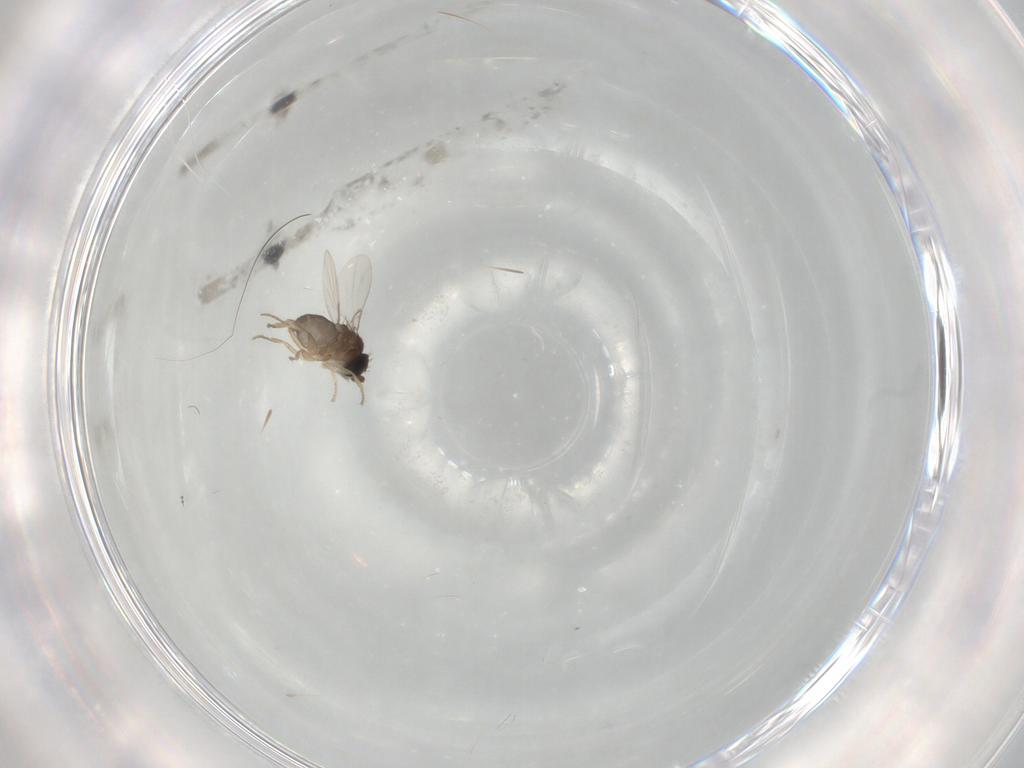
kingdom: Animalia
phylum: Arthropoda
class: Insecta
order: Diptera
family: Phoridae
